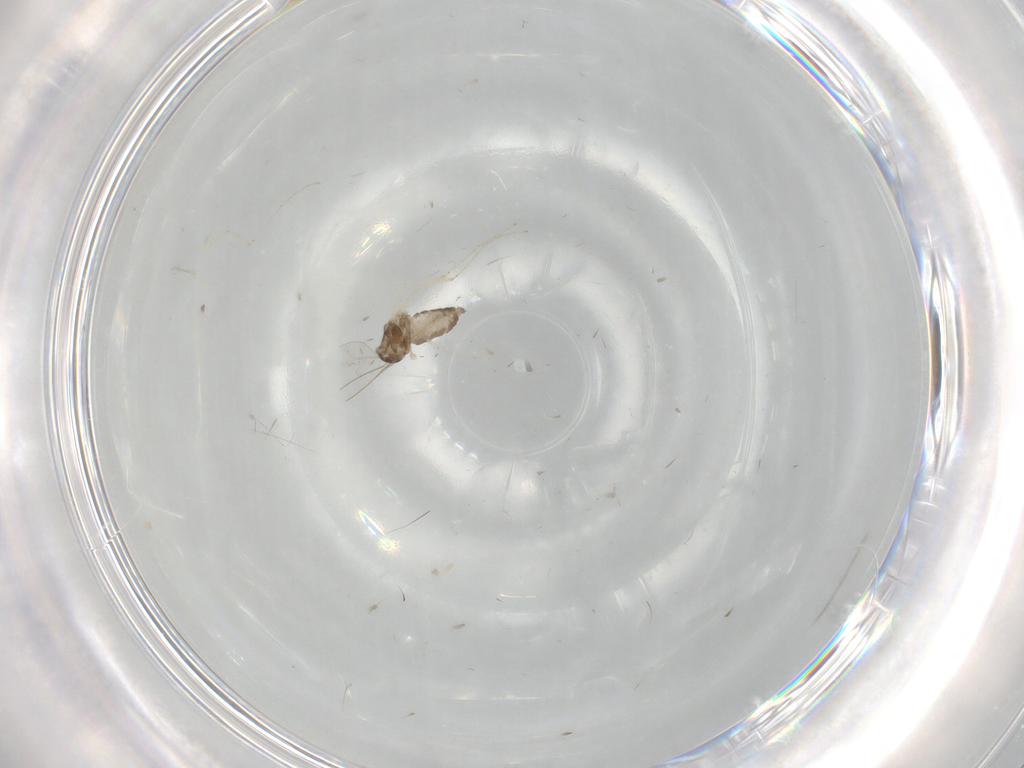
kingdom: Animalia
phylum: Arthropoda
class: Insecta
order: Diptera
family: Cecidomyiidae
